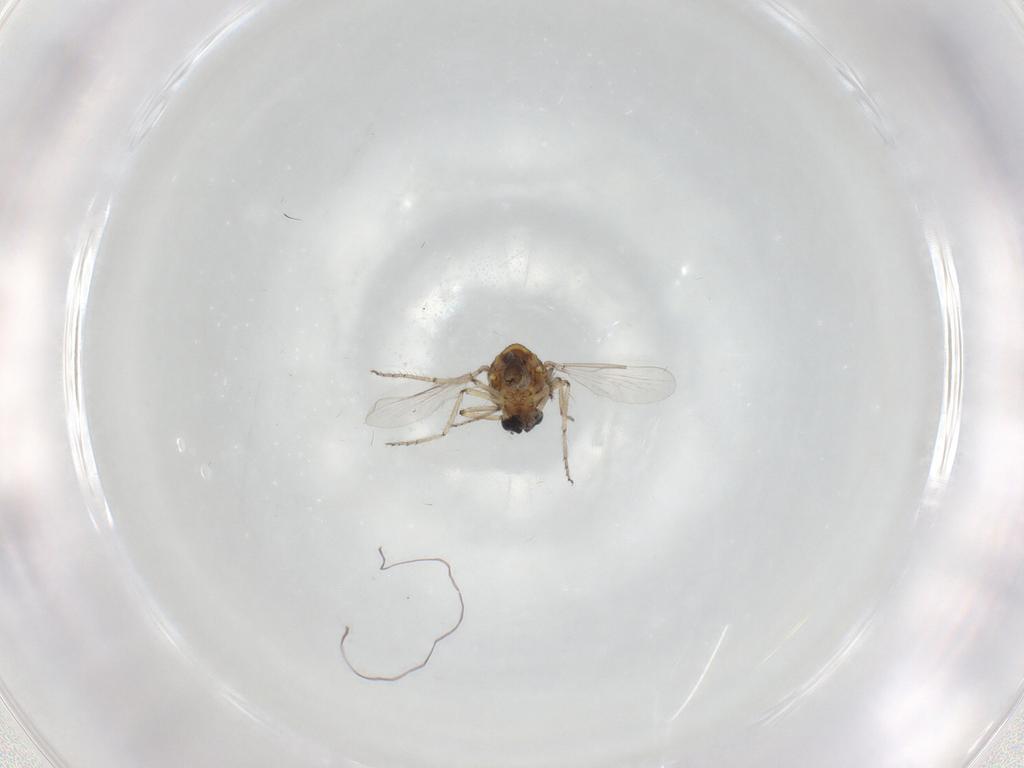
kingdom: Animalia
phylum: Arthropoda
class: Insecta
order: Diptera
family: Ceratopogonidae
